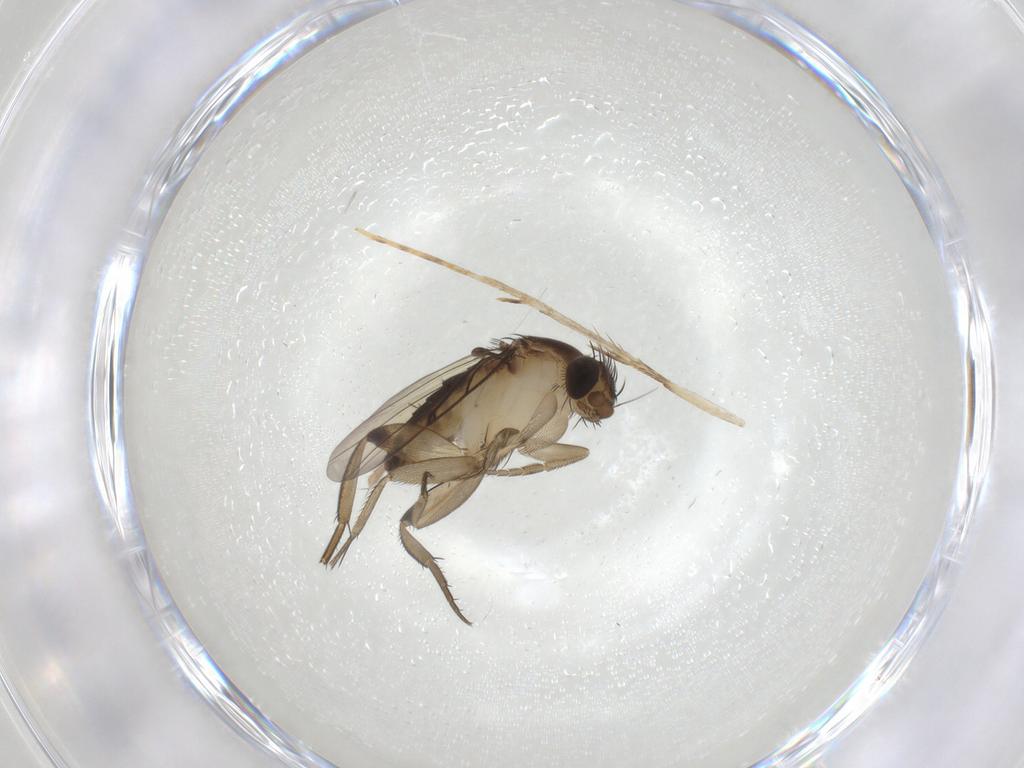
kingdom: Animalia
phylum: Arthropoda
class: Insecta
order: Diptera
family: Phoridae
